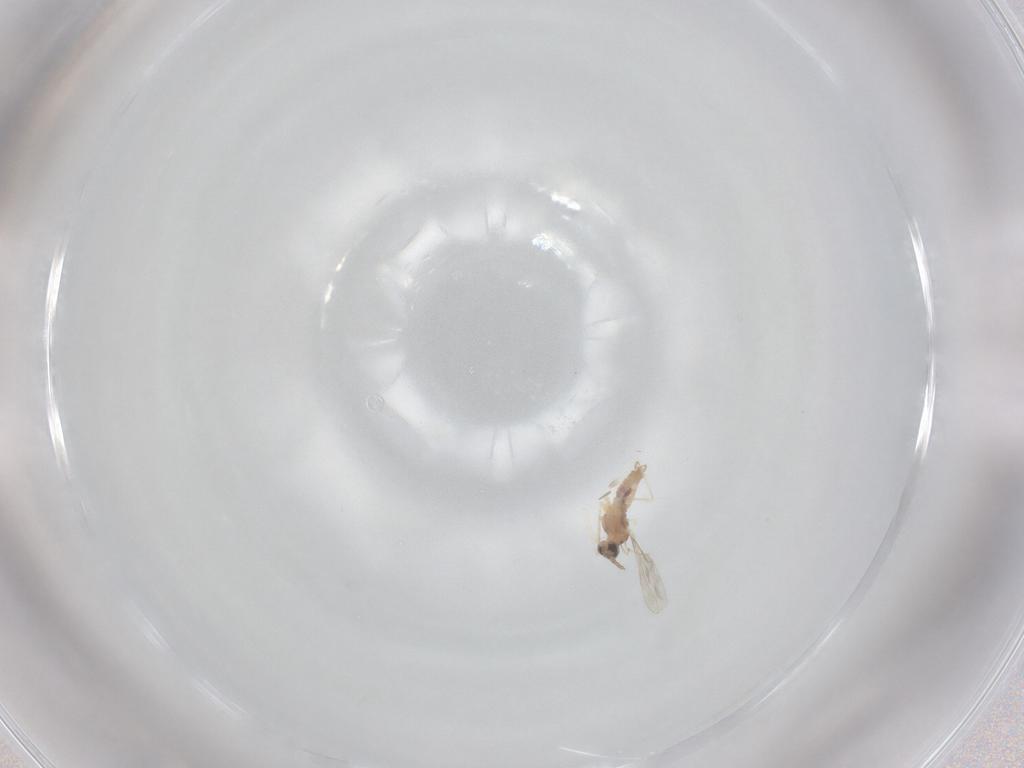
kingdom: Animalia
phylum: Arthropoda
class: Insecta
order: Diptera
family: Cecidomyiidae
